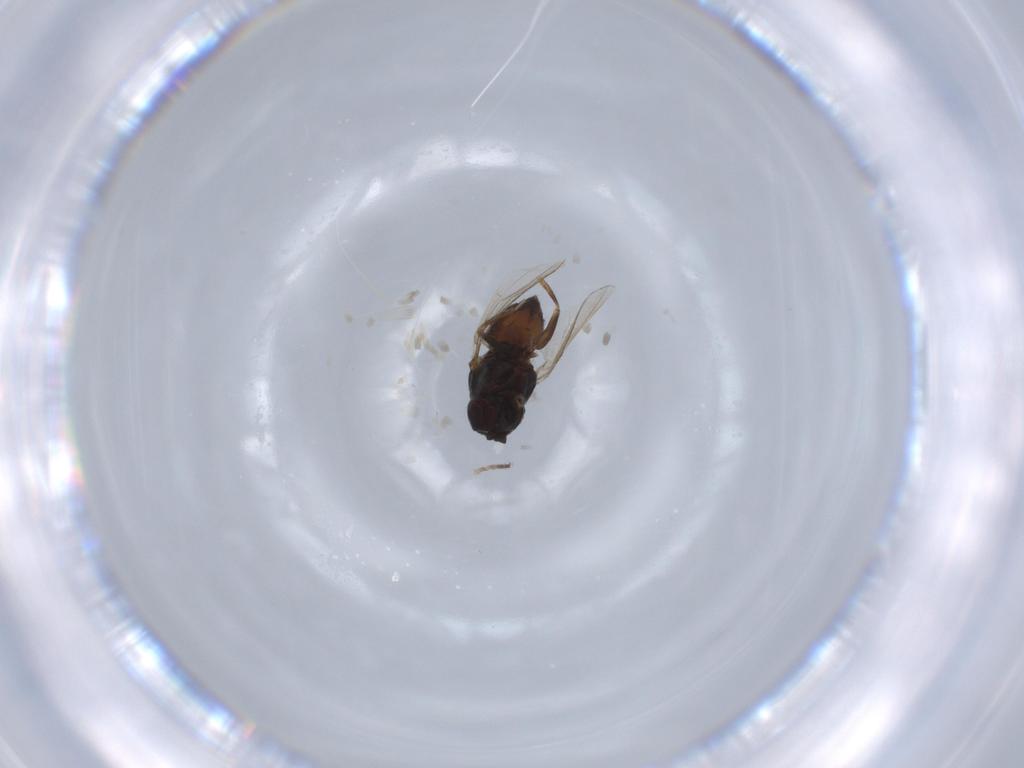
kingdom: Animalia
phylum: Arthropoda
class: Insecta
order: Diptera
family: Ephydridae
